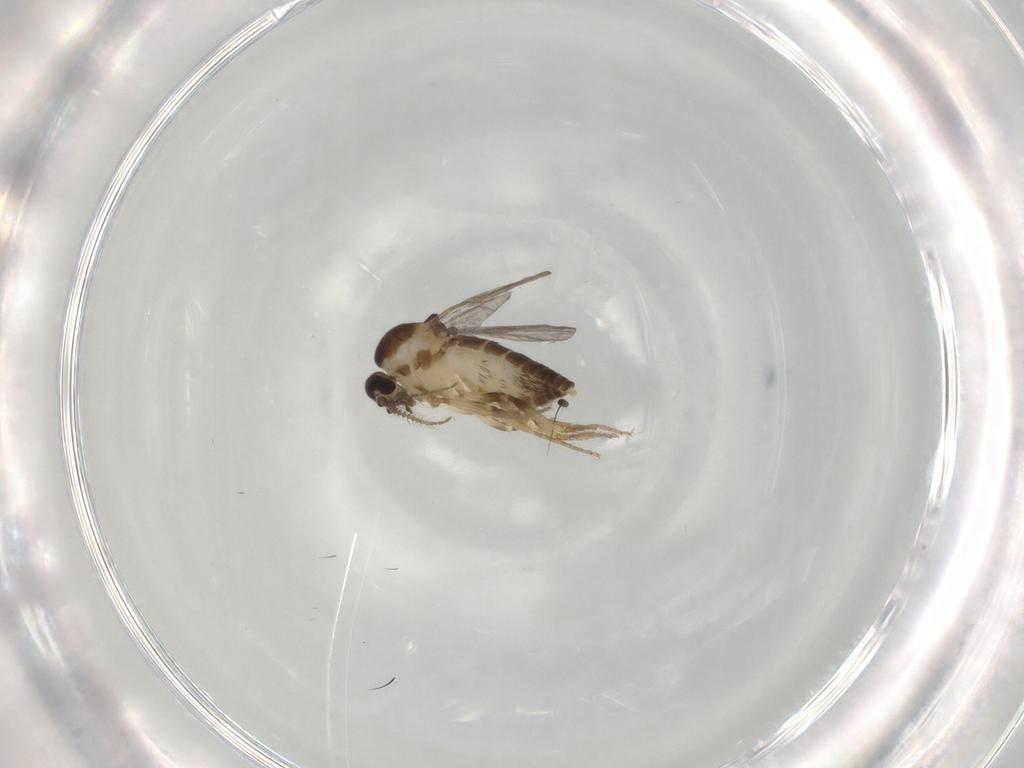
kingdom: Animalia
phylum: Arthropoda
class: Insecta
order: Diptera
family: Ceratopogonidae
